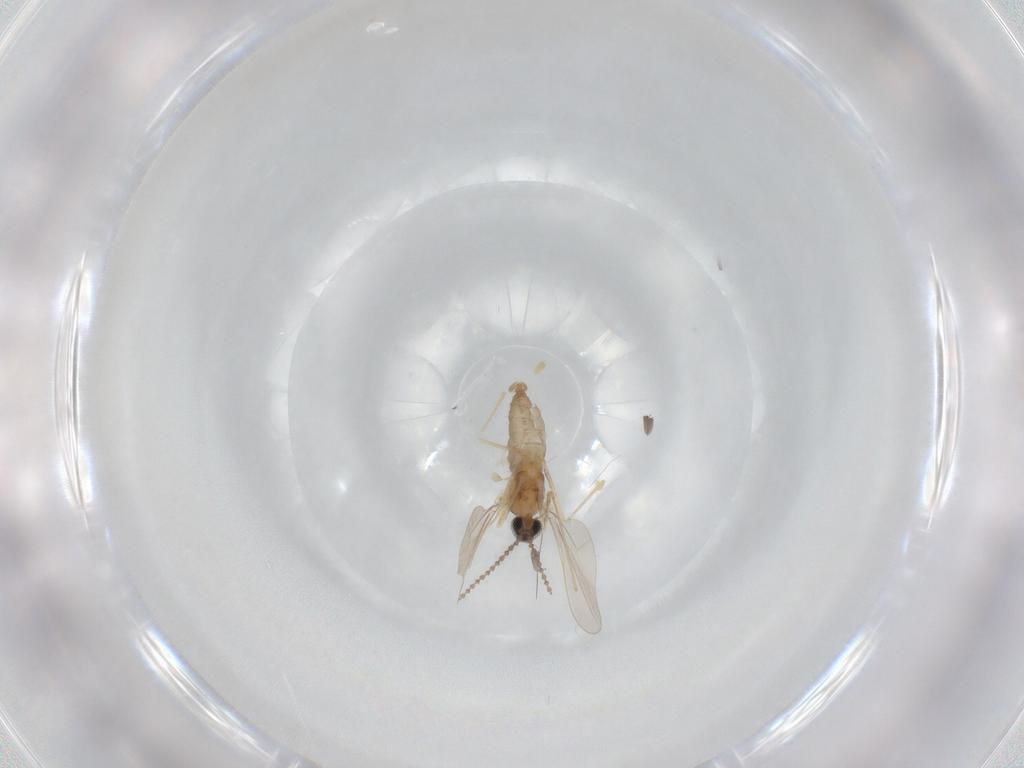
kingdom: Animalia
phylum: Arthropoda
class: Insecta
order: Diptera
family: Cecidomyiidae
